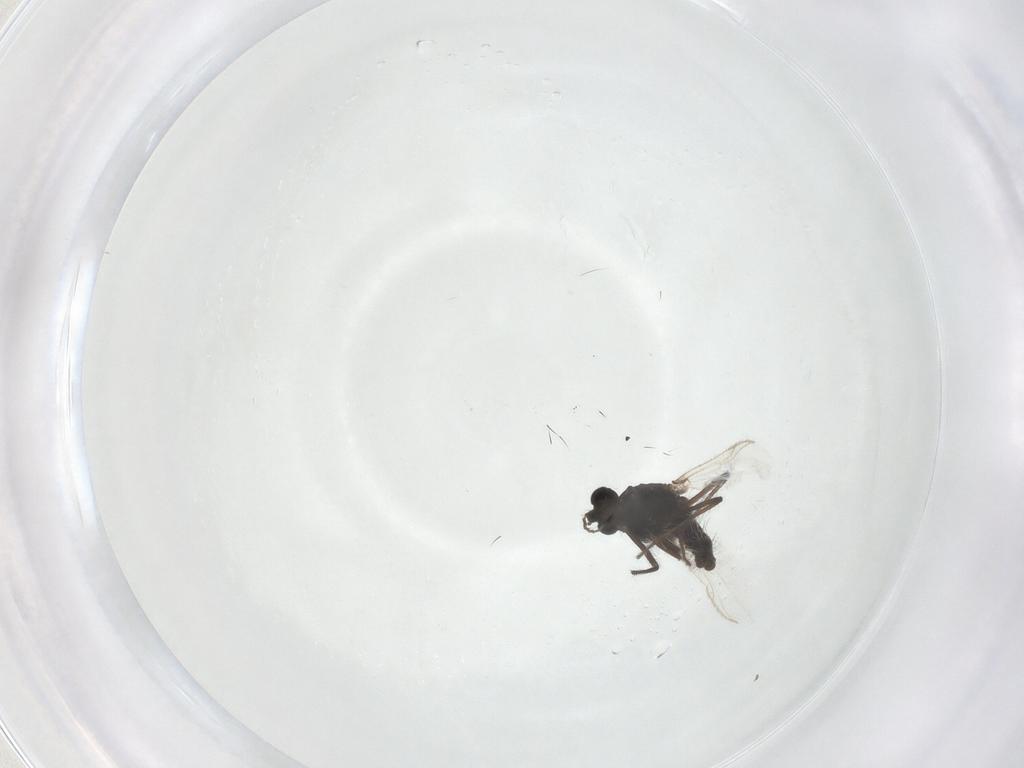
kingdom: Animalia
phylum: Arthropoda
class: Insecta
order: Diptera
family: Chironomidae
